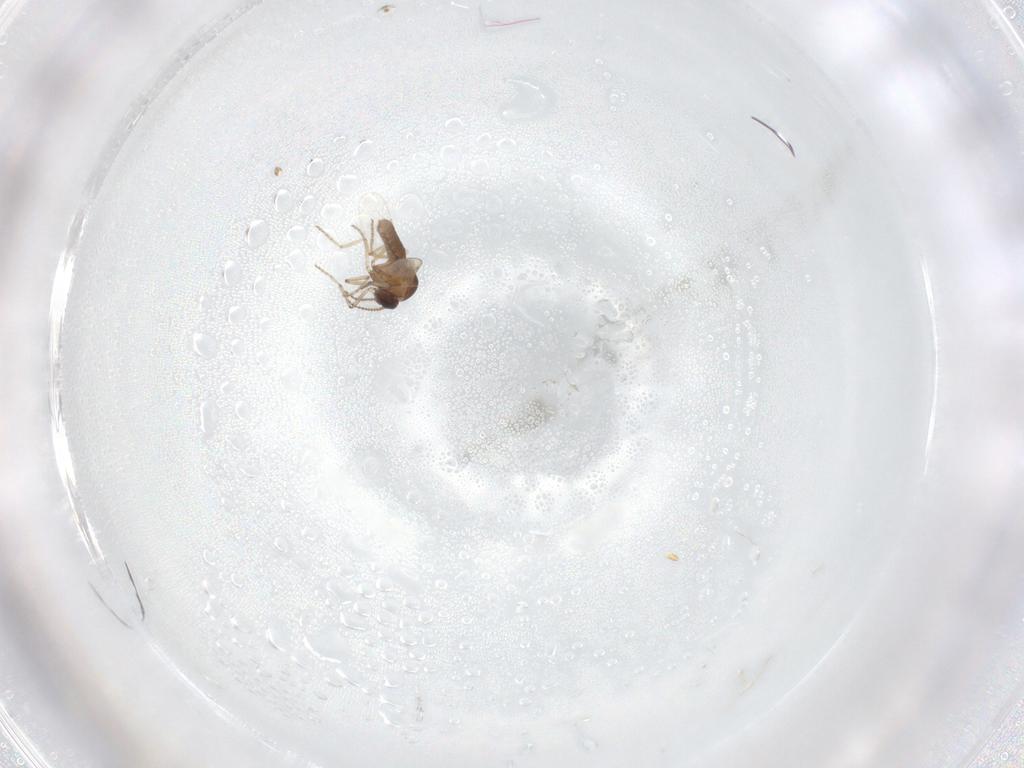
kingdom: Animalia
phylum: Arthropoda
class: Insecta
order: Diptera
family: Ceratopogonidae
